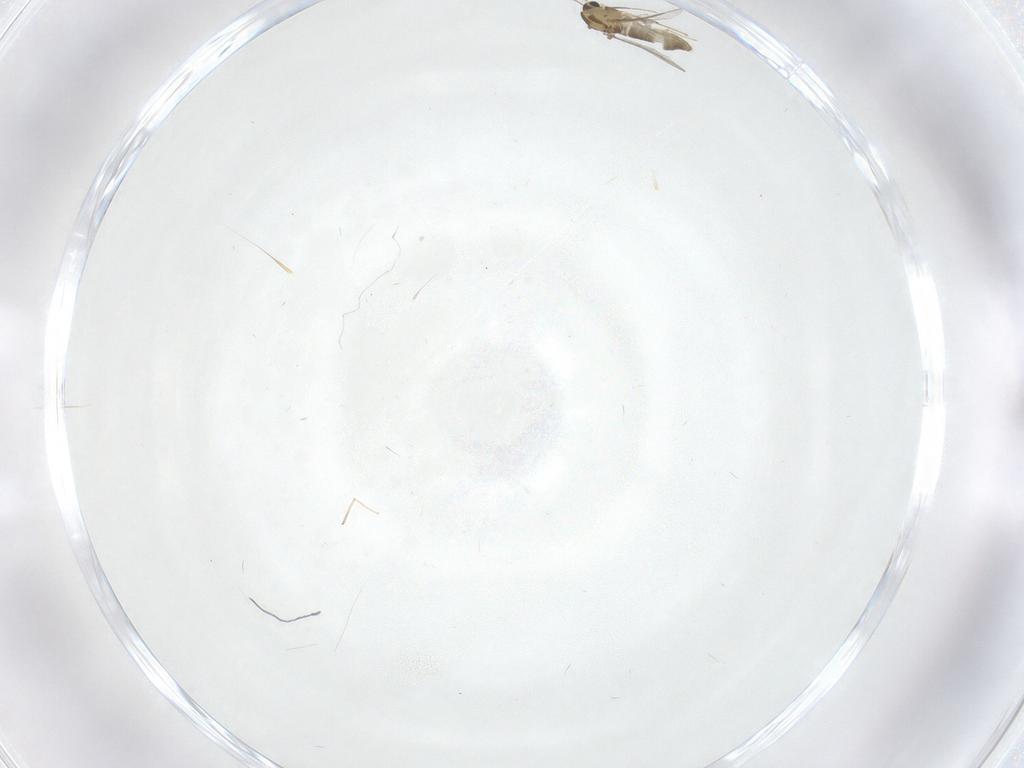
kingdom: Animalia
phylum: Arthropoda
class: Insecta
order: Diptera
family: Chironomidae
